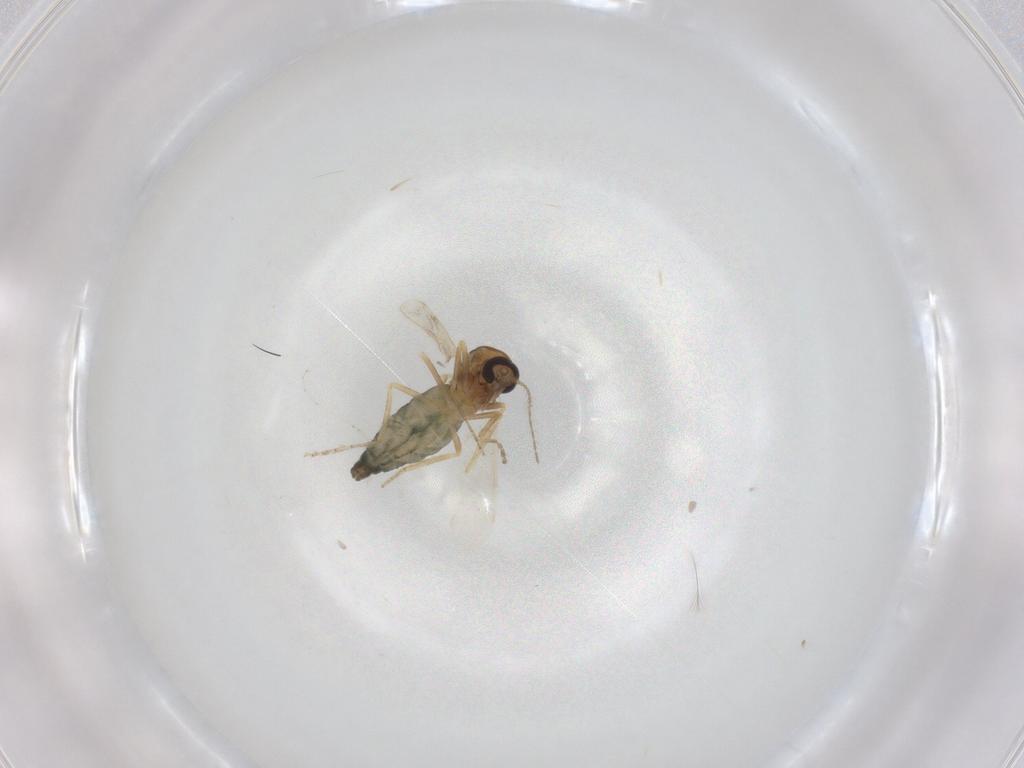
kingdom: Animalia
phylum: Arthropoda
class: Insecta
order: Diptera
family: Ceratopogonidae
